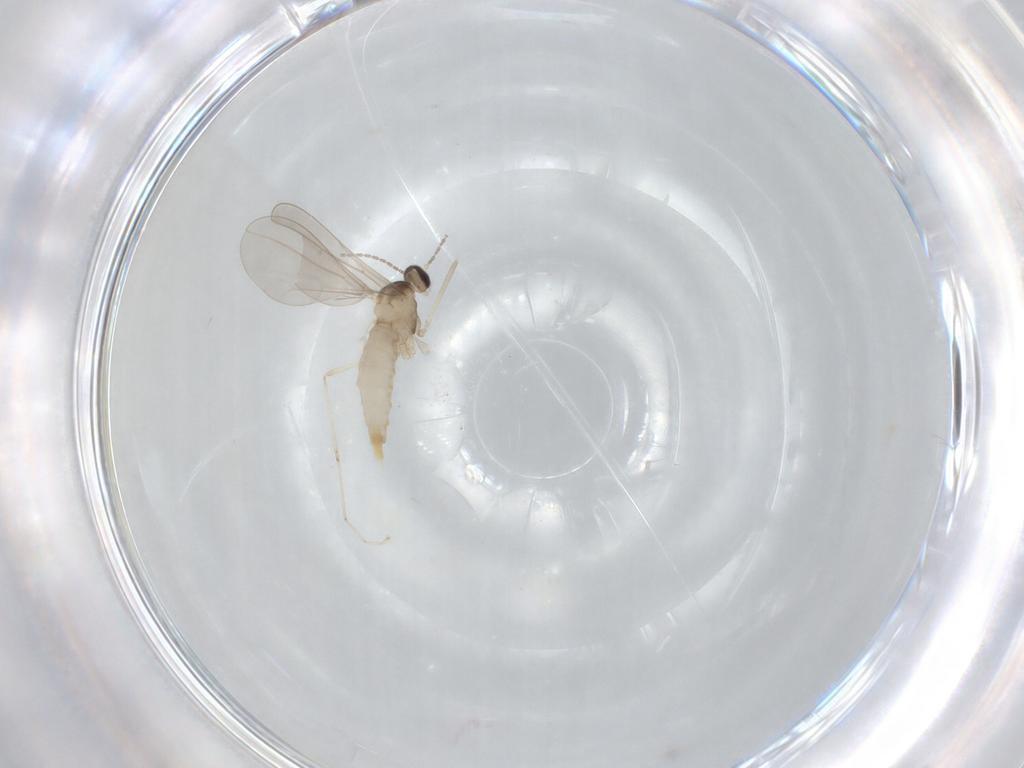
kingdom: Animalia
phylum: Arthropoda
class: Insecta
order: Diptera
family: Cecidomyiidae
